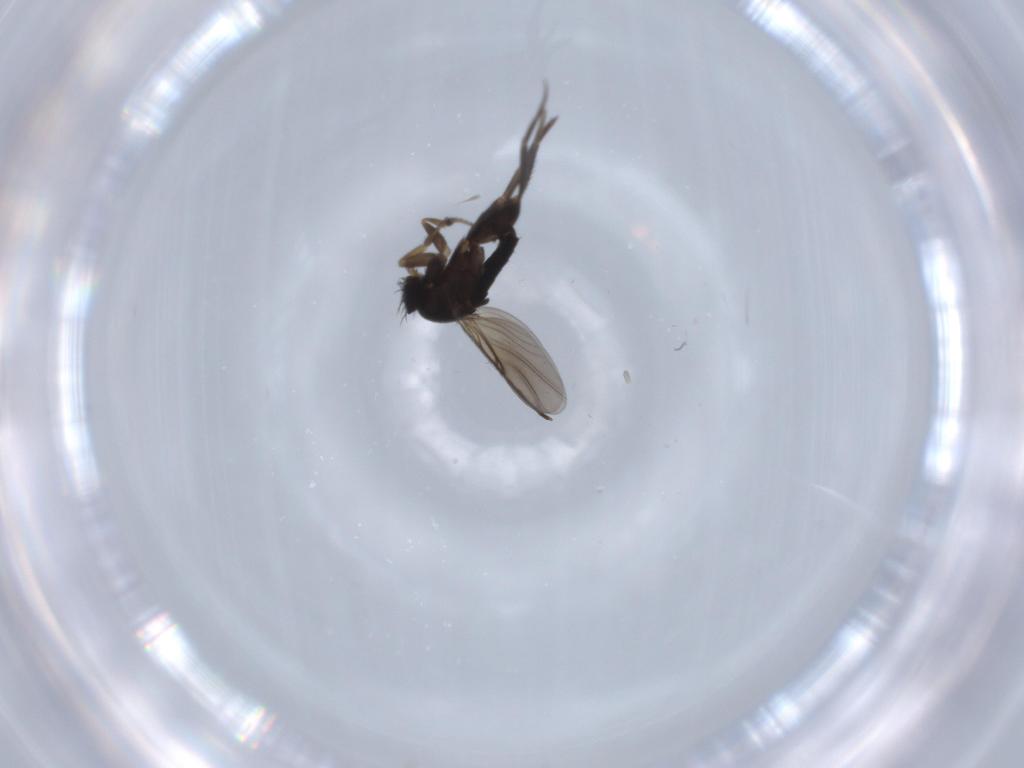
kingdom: Animalia
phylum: Arthropoda
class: Insecta
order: Diptera
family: Phoridae
